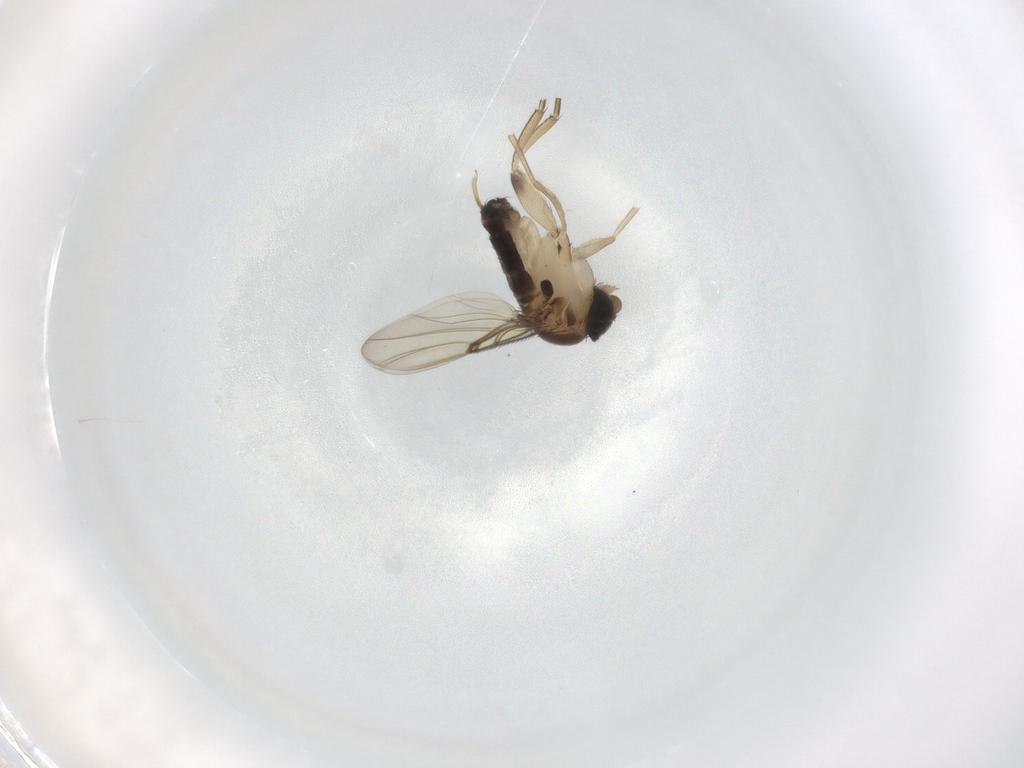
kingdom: Animalia
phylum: Arthropoda
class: Insecta
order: Diptera
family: Phoridae
